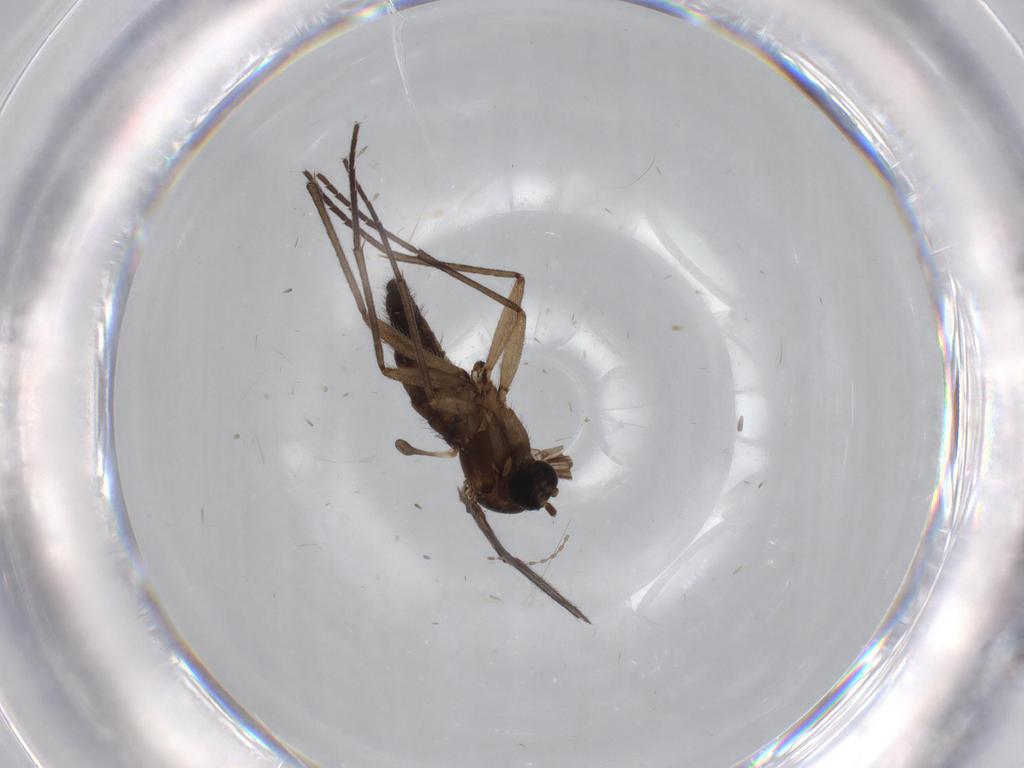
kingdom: Animalia
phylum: Arthropoda
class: Insecta
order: Diptera
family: Sciaridae
